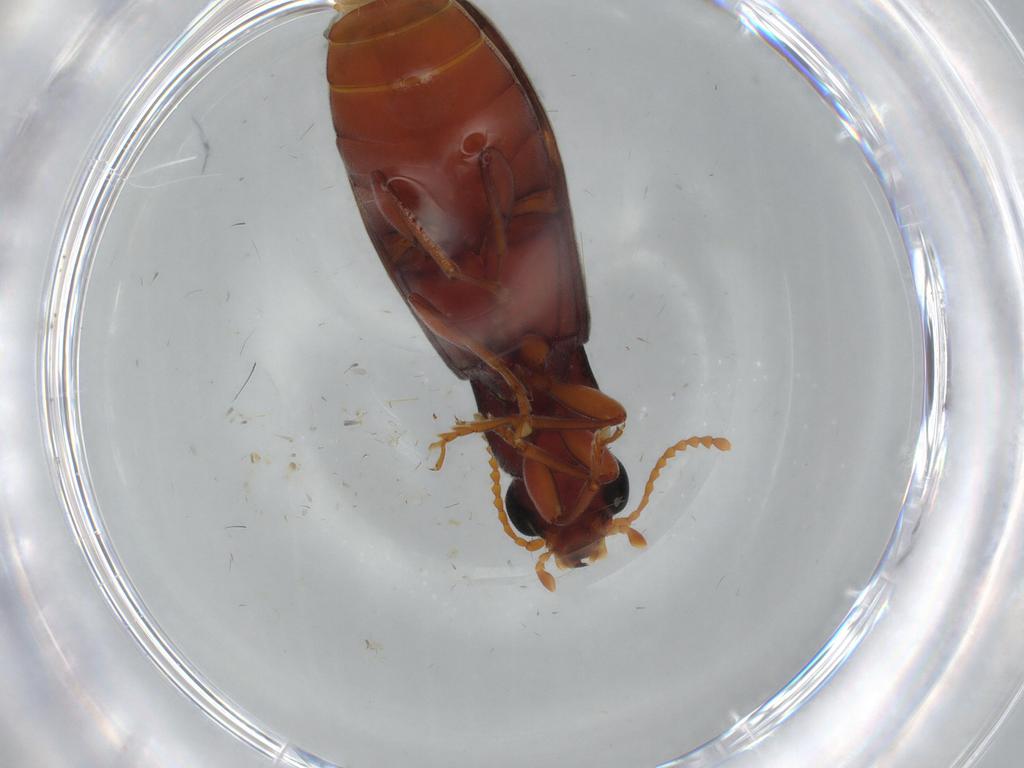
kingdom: Animalia
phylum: Arthropoda
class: Insecta
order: Coleoptera
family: Mycteridae
